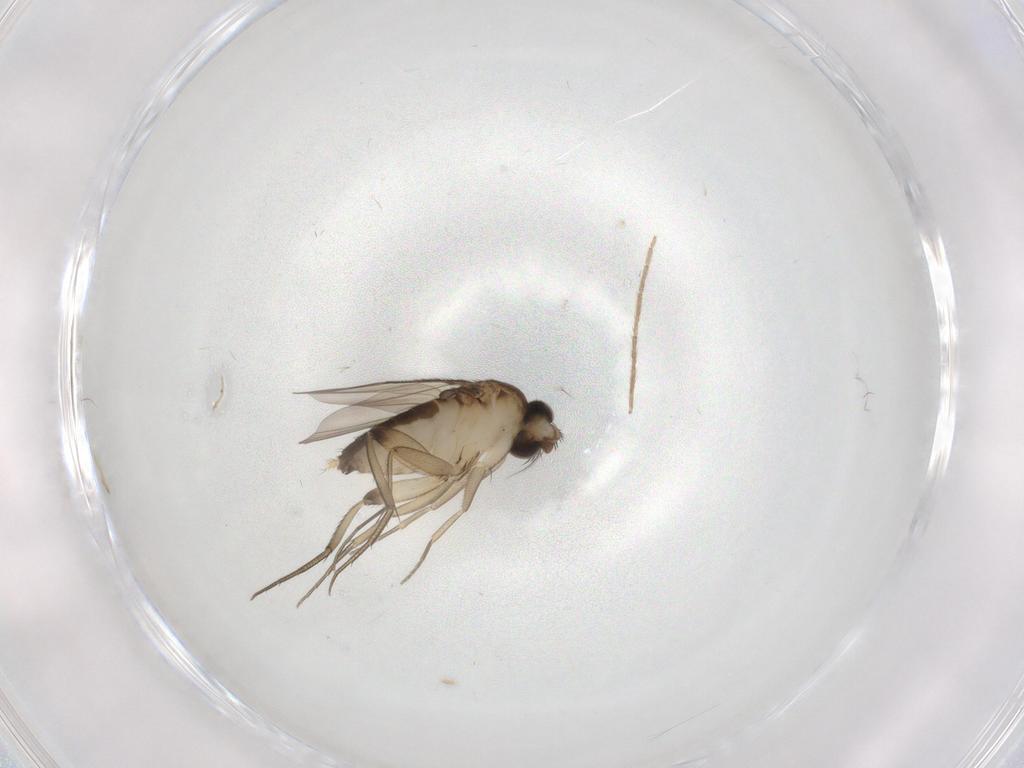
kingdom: Animalia
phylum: Arthropoda
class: Insecta
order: Diptera
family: Phoridae
